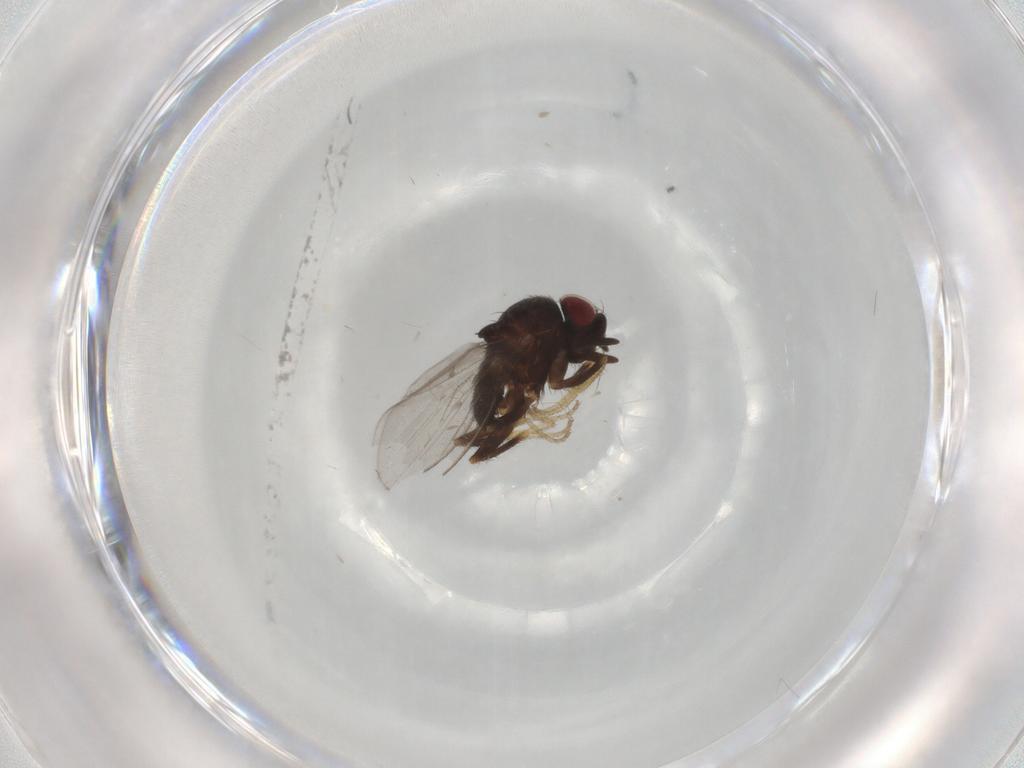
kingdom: Animalia
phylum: Arthropoda
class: Insecta
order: Diptera
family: Milichiidae
